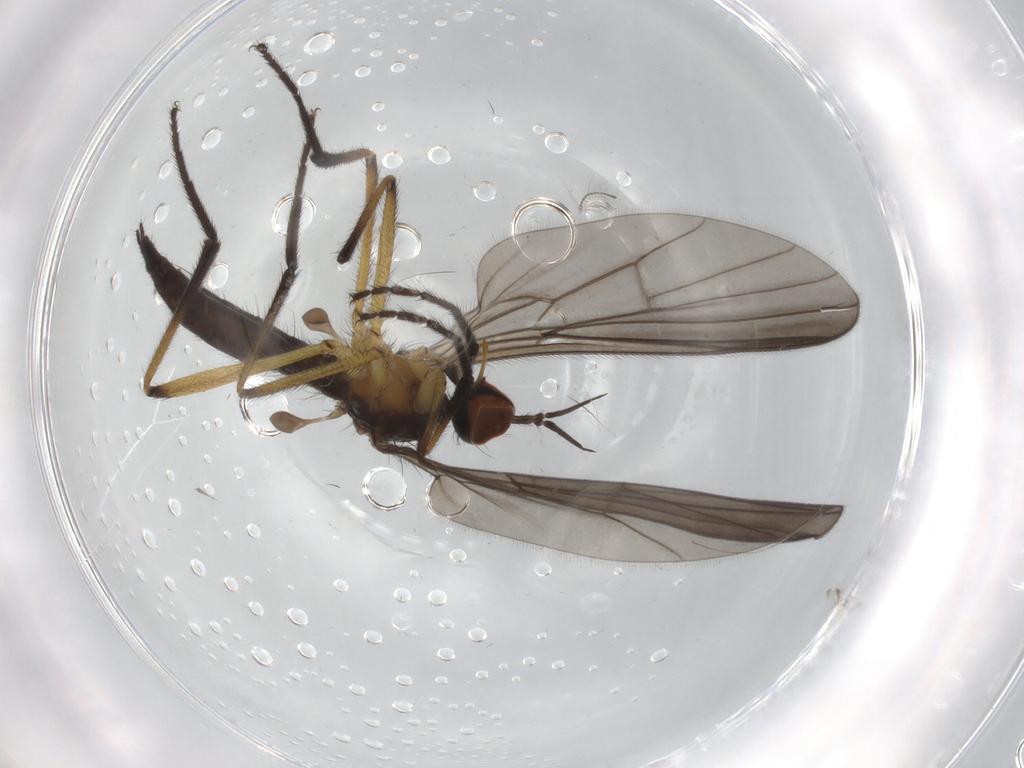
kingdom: Animalia
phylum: Arthropoda
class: Insecta
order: Diptera
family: Empididae
